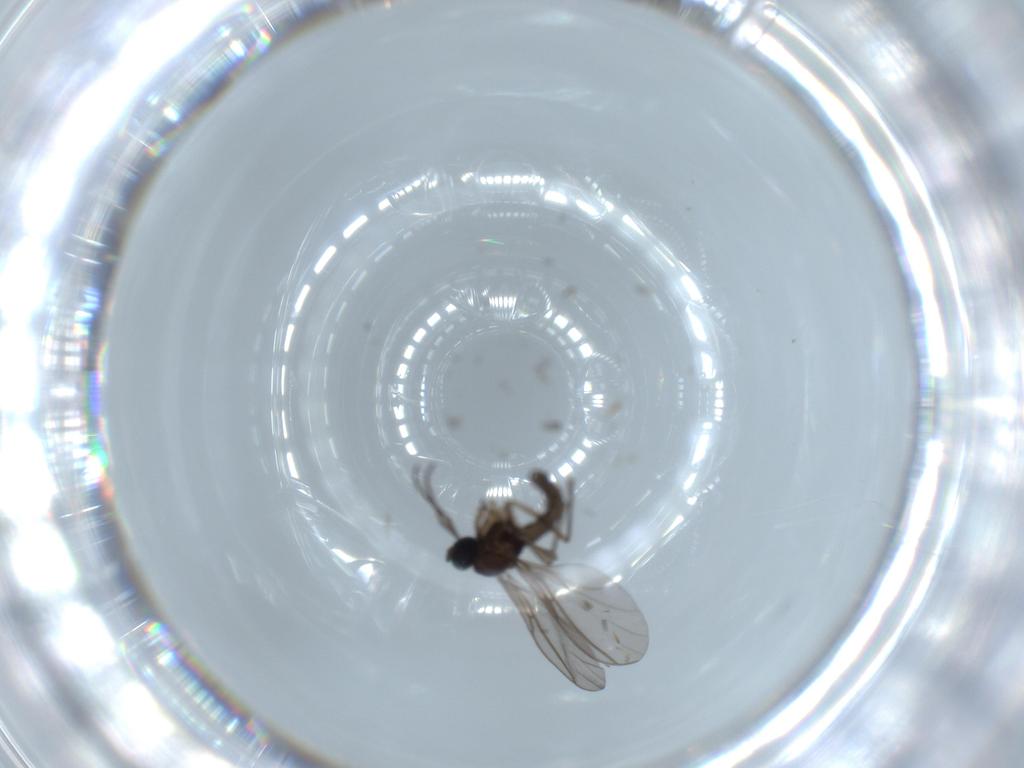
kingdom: Animalia
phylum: Arthropoda
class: Insecta
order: Diptera
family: Sciaridae
